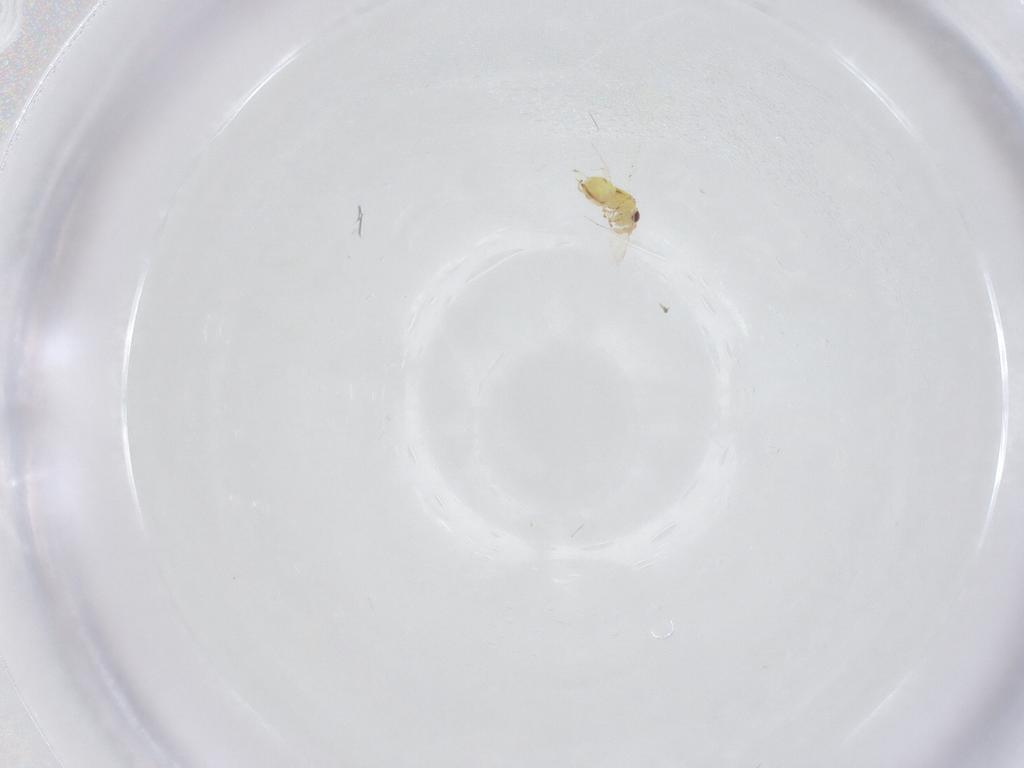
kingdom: Animalia
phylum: Arthropoda
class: Insecta
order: Hymenoptera
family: Eulophidae
